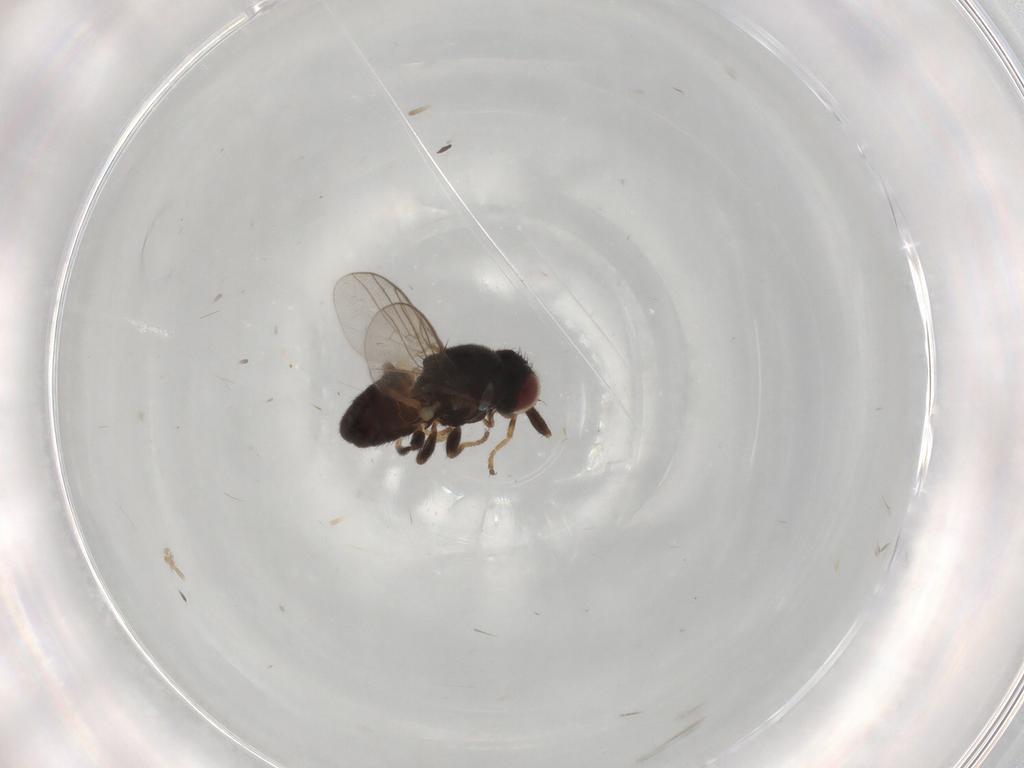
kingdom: Animalia
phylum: Arthropoda
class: Insecta
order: Diptera
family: Chloropidae
